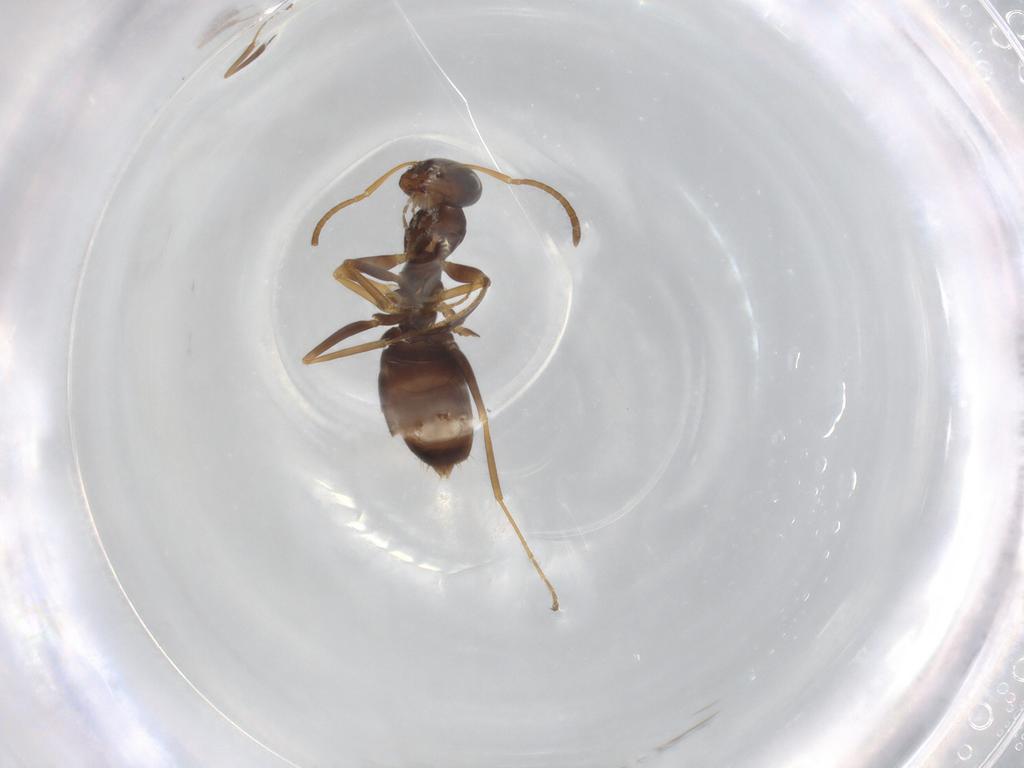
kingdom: Animalia
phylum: Arthropoda
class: Insecta
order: Hymenoptera
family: Formicidae
